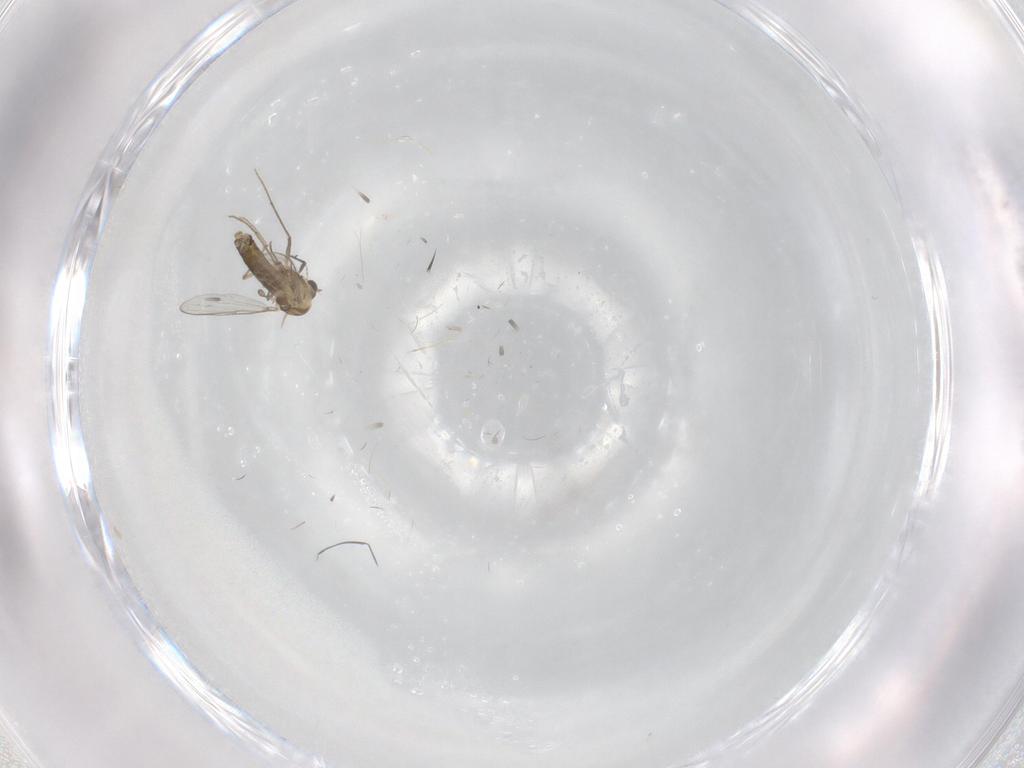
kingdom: Animalia
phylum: Arthropoda
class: Insecta
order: Diptera
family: Chironomidae
